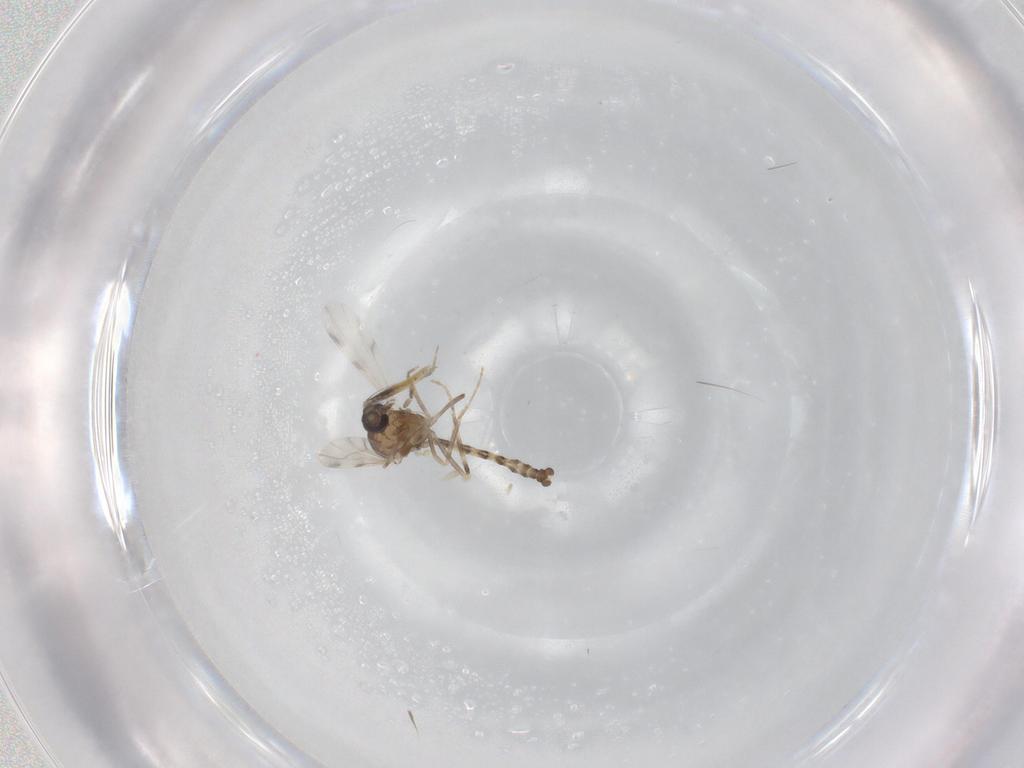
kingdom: Animalia
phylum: Arthropoda
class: Insecta
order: Diptera
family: Ceratopogonidae
